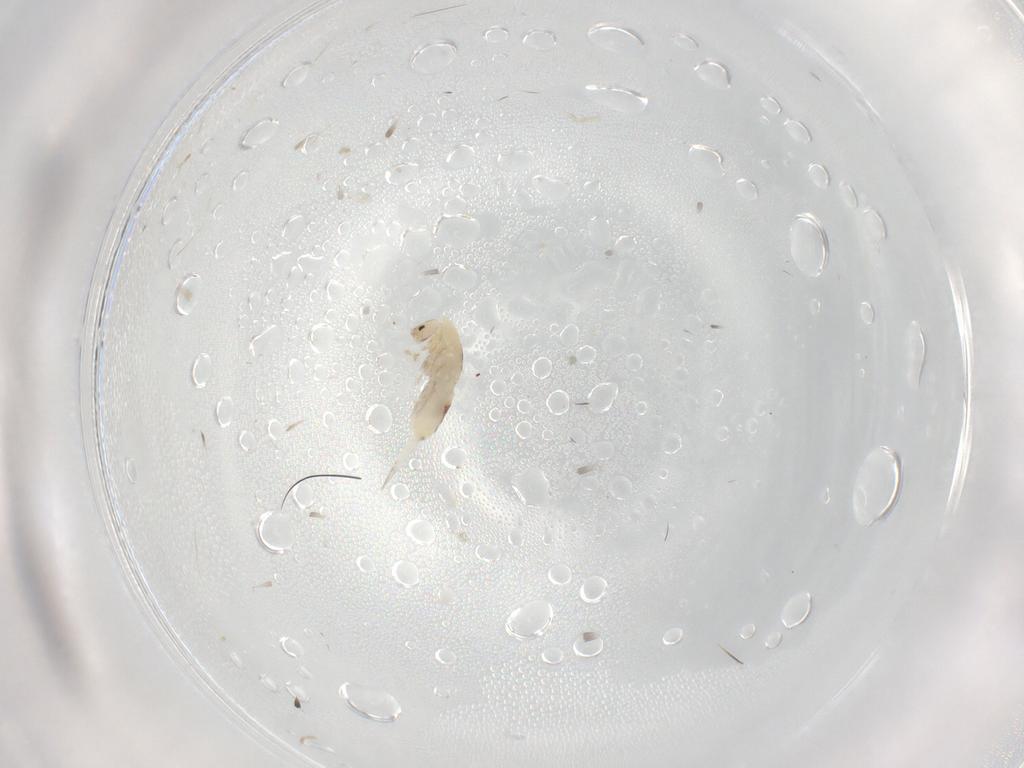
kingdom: Animalia
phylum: Arthropoda
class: Collembola
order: Entomobryomorpha
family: Entomobryidae
